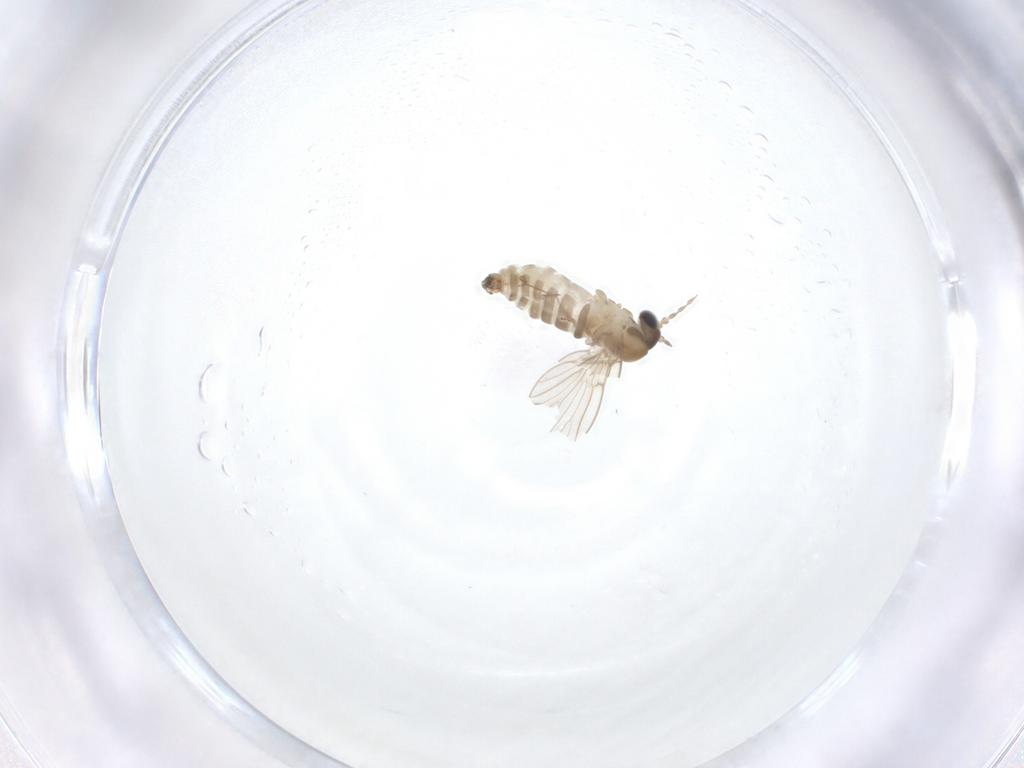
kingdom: Animalia
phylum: Arthropoda
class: Insecta
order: Diptera
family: Psychodidae
